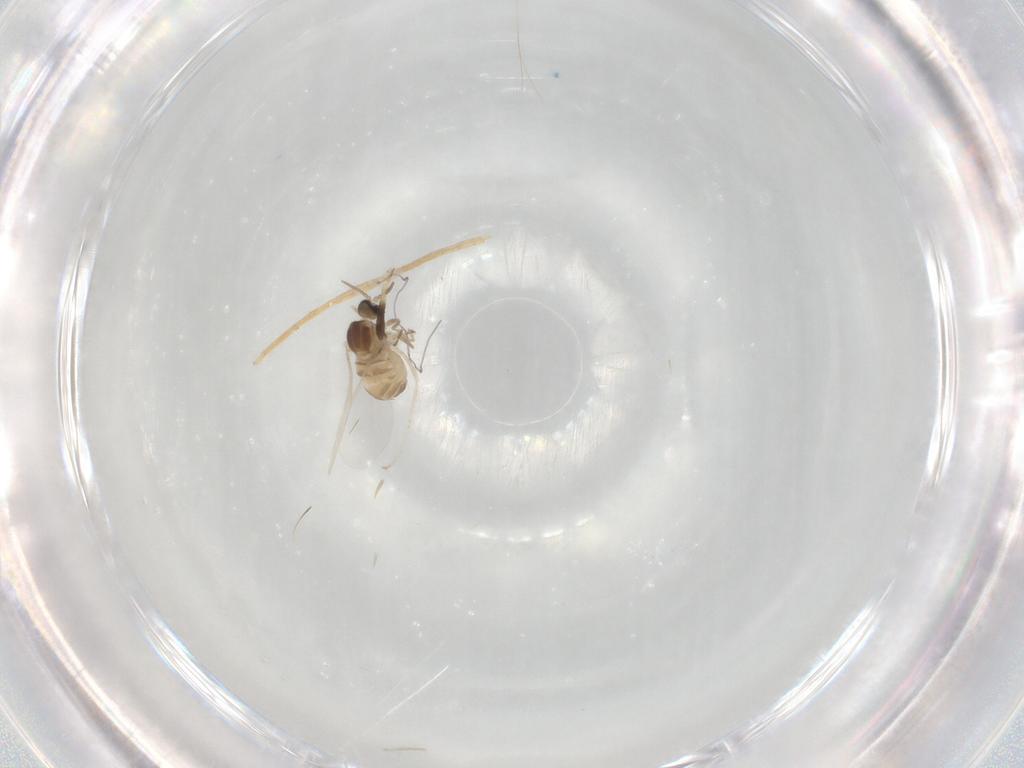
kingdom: Animalia
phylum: Arthropoda
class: Insecta
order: Diptera
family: Cecidomyiidae
